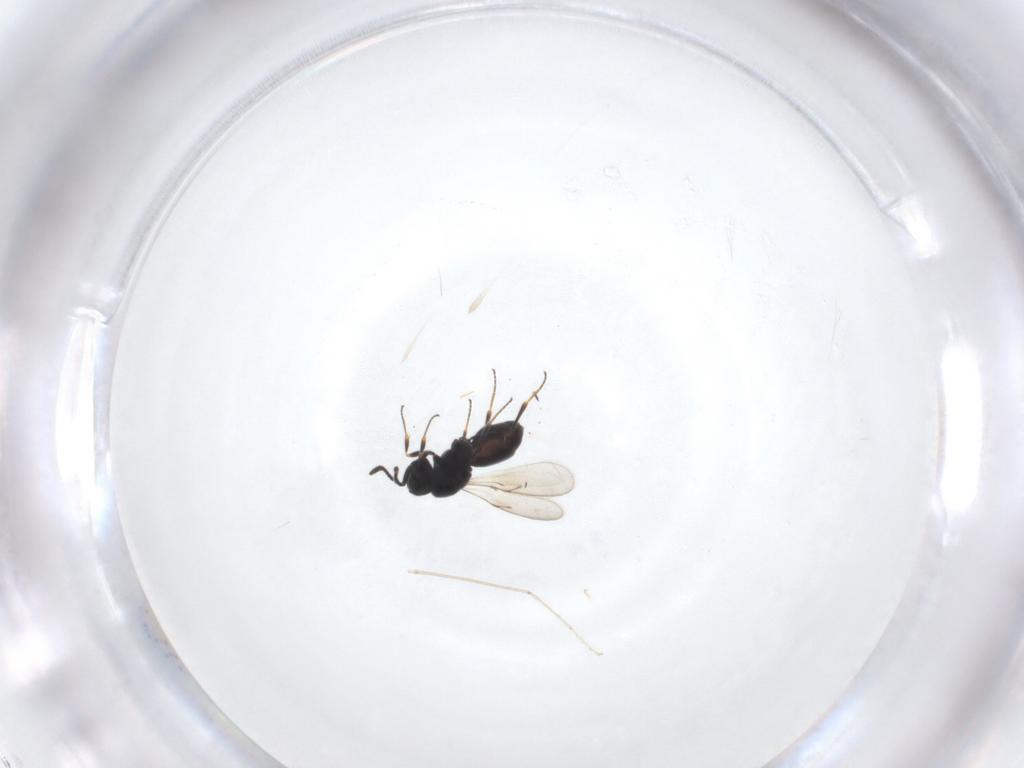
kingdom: Animalia
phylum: Arthropoda
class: Insecta
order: Hymenoptera
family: Scelionidae
